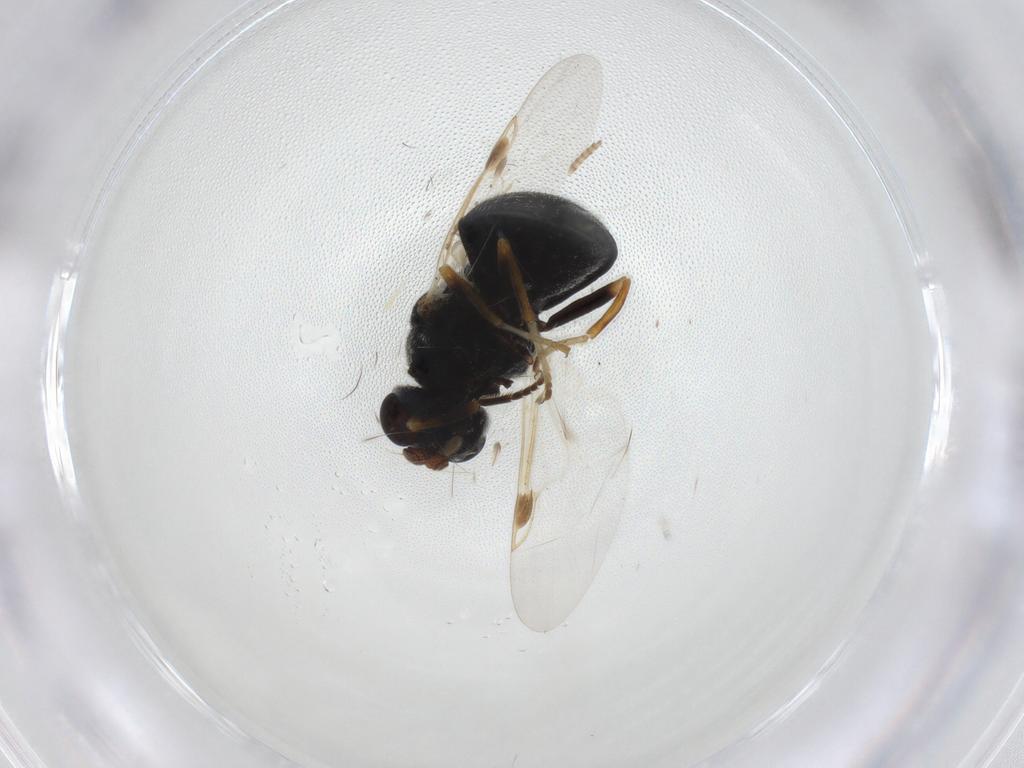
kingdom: Animalia
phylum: Arthropoda
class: Insecta
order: Diptera
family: Stratiomyidae
